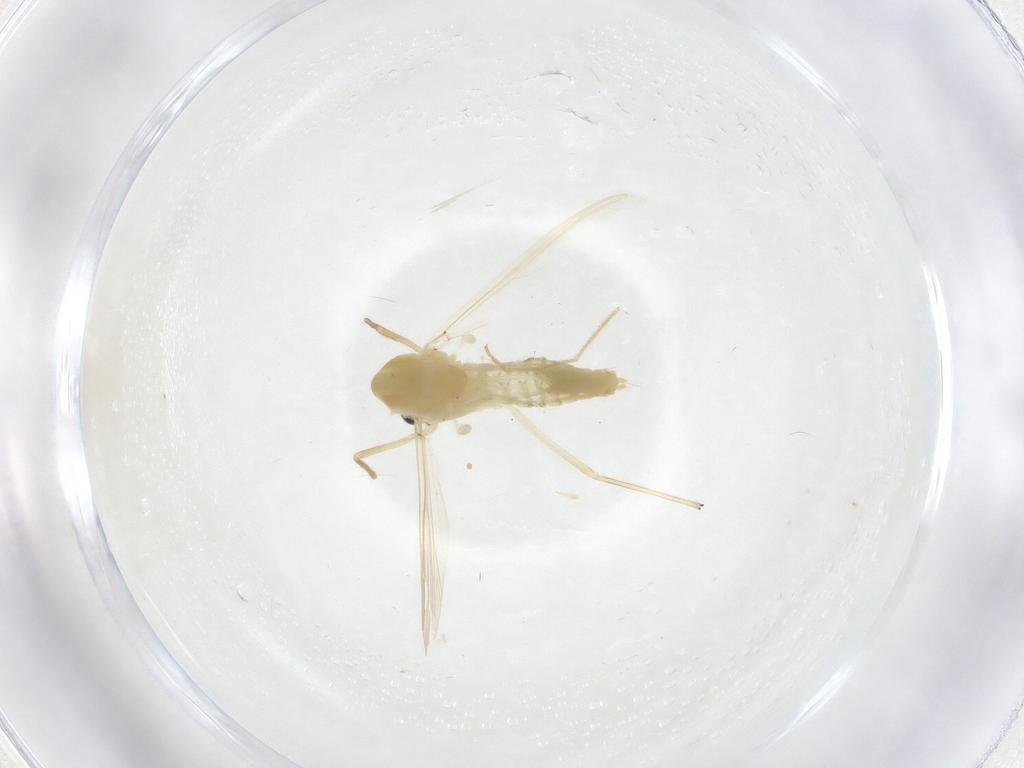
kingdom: Animalia
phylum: Arthropoda
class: Insecta
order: Diptera
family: Chironomidae
